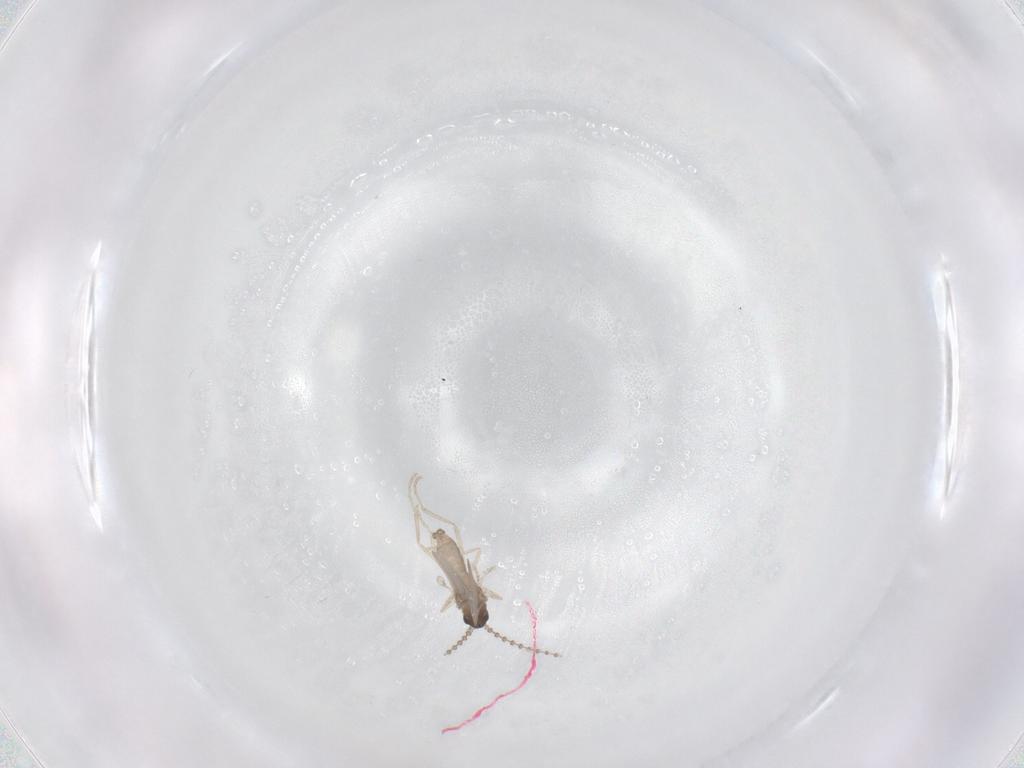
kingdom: Animalia
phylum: Arthropoda
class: Insecta
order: Diptera
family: Cecidomyiidae
